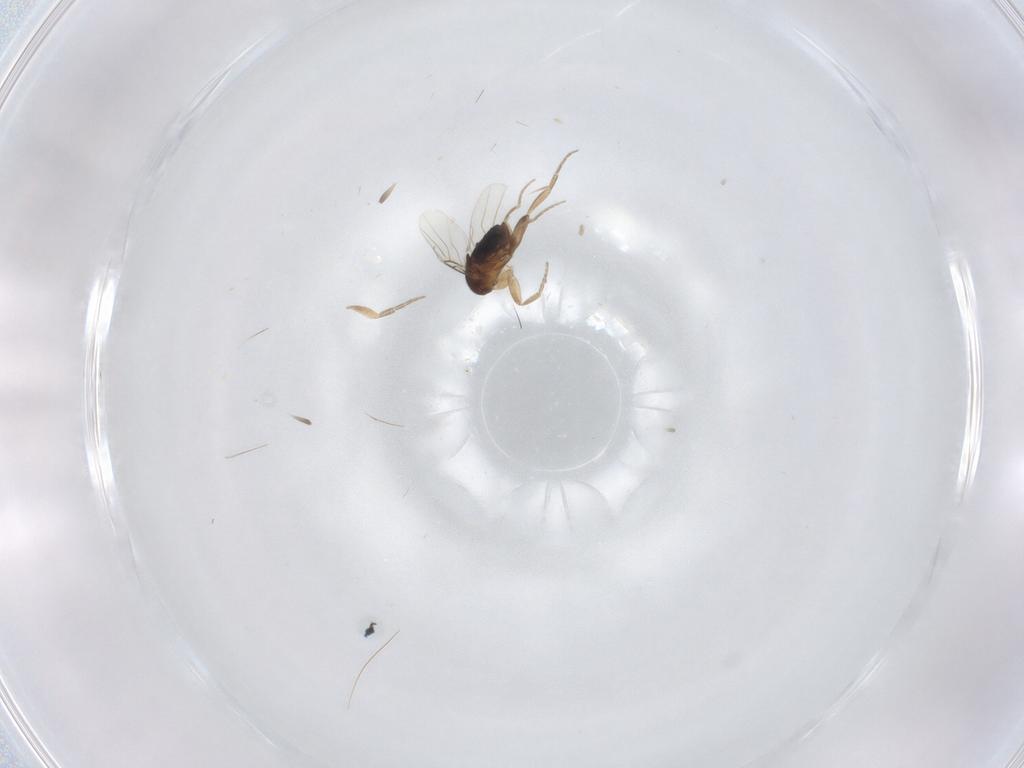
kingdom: Animalia
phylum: Arthropoda
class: Insecta
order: Diptera
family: Phoridae
